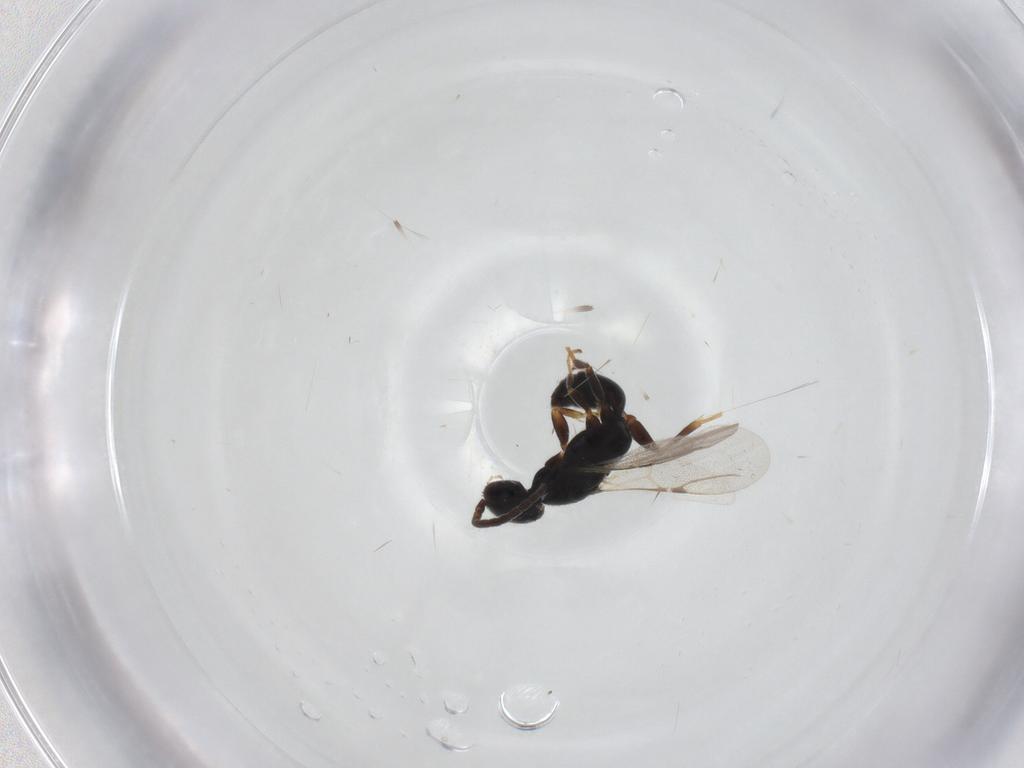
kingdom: Animalia
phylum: Arthropoda
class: Insecta
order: Hymenoptera
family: Bethylidae
